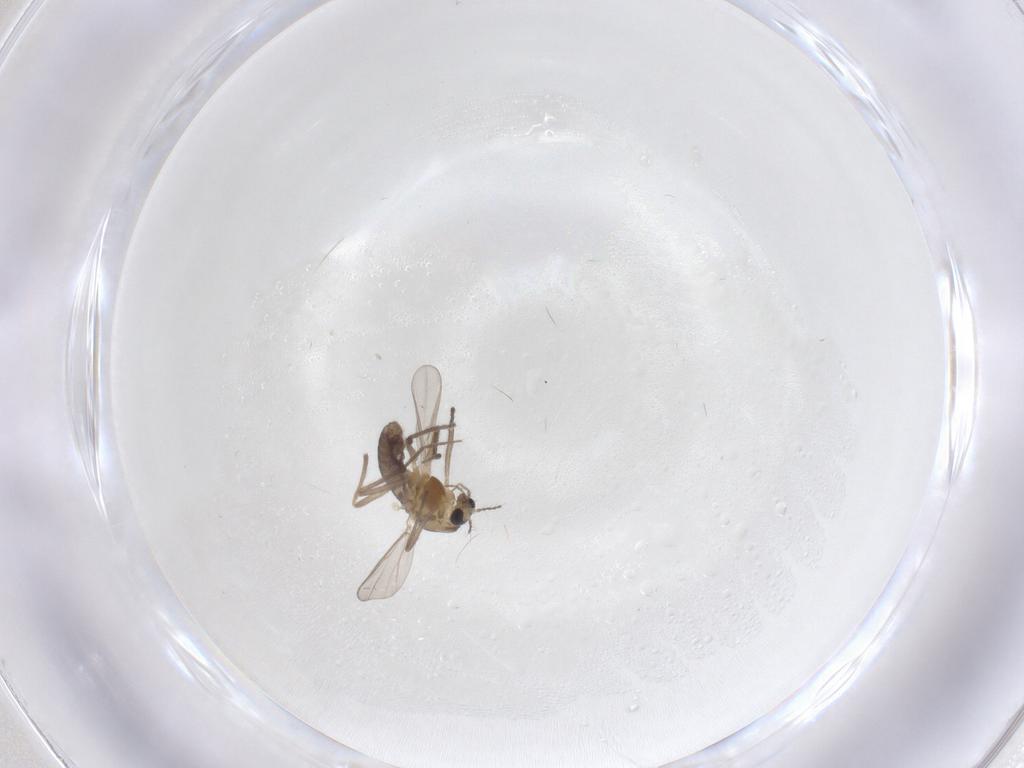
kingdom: Animalia
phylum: Arthropoda
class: Insecta
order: Diptera
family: Chironomidae
